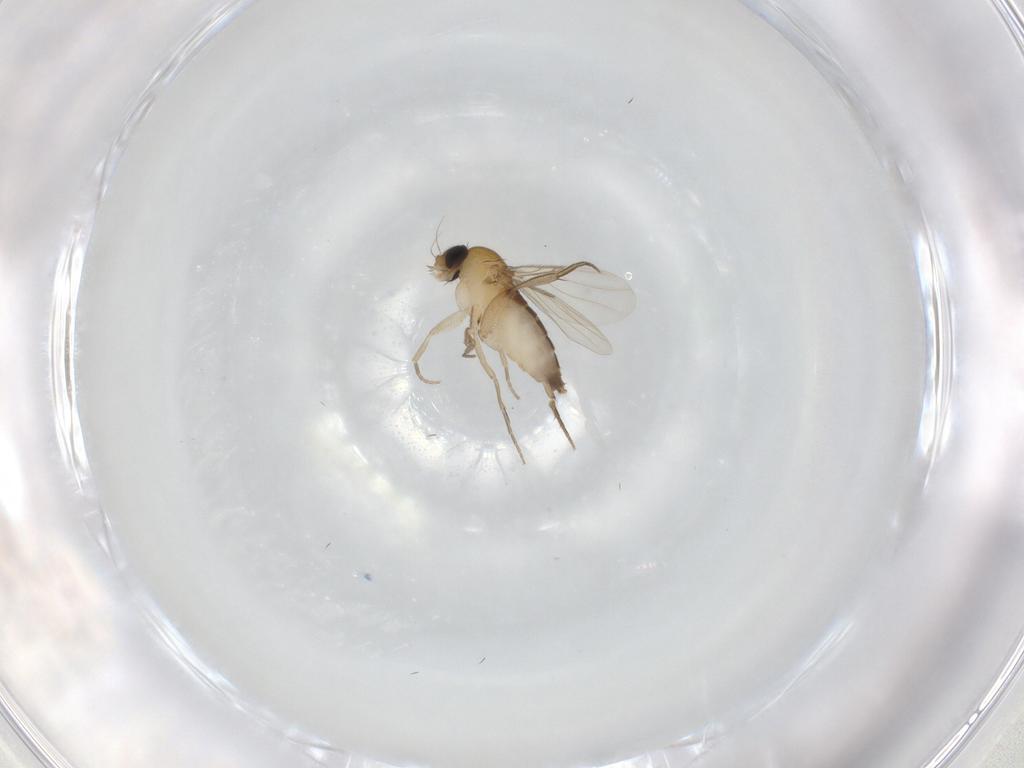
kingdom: Animalia
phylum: Arthropoda
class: Insecta
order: Diptera
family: Phoridae
